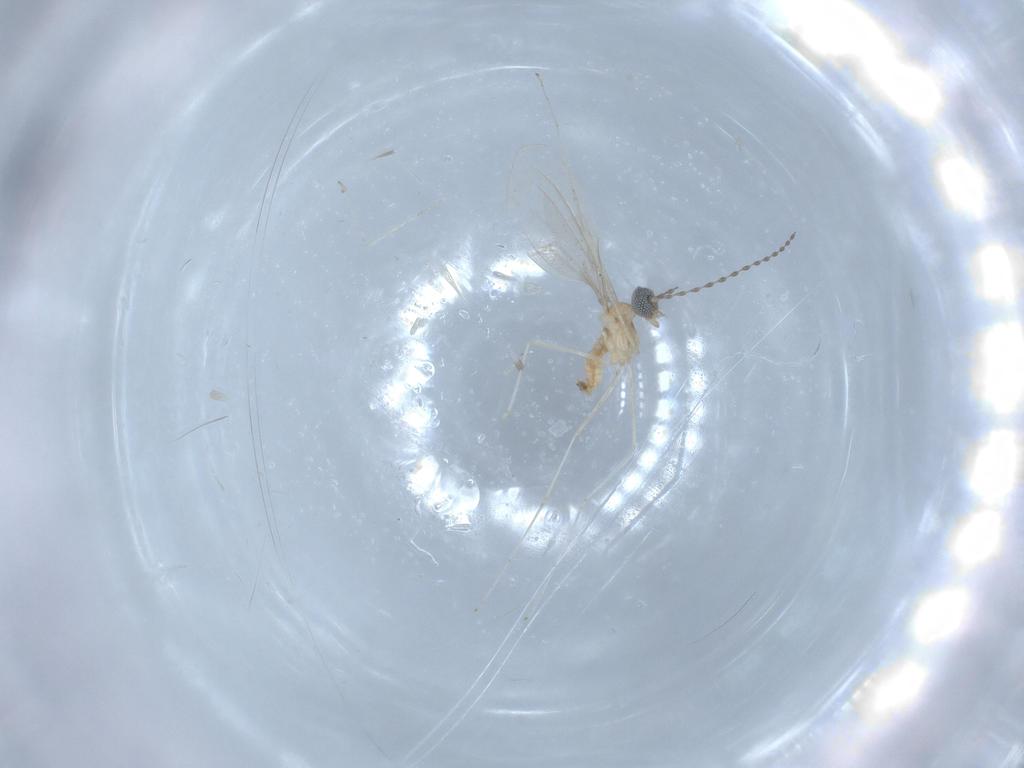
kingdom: Animalia
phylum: Arthropoda
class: Insecta
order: Diptera
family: Cecidomyiidae
